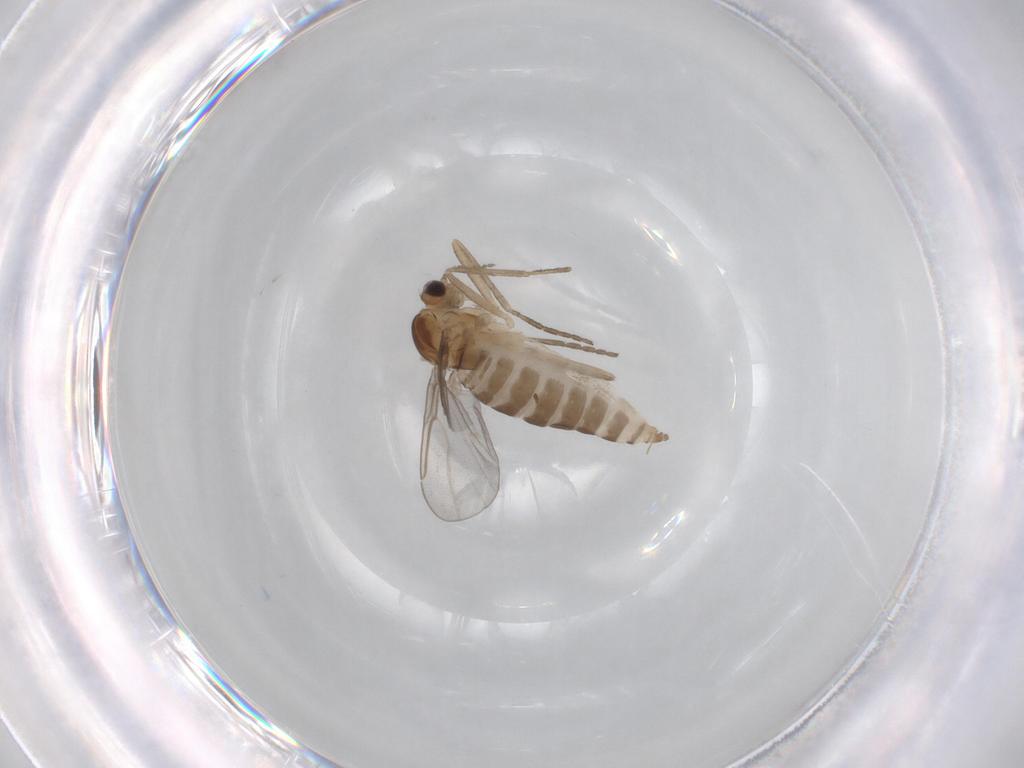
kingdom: Animalia
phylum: Arthropoda
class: Insecta
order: Diptera
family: Cecidomyiidae
